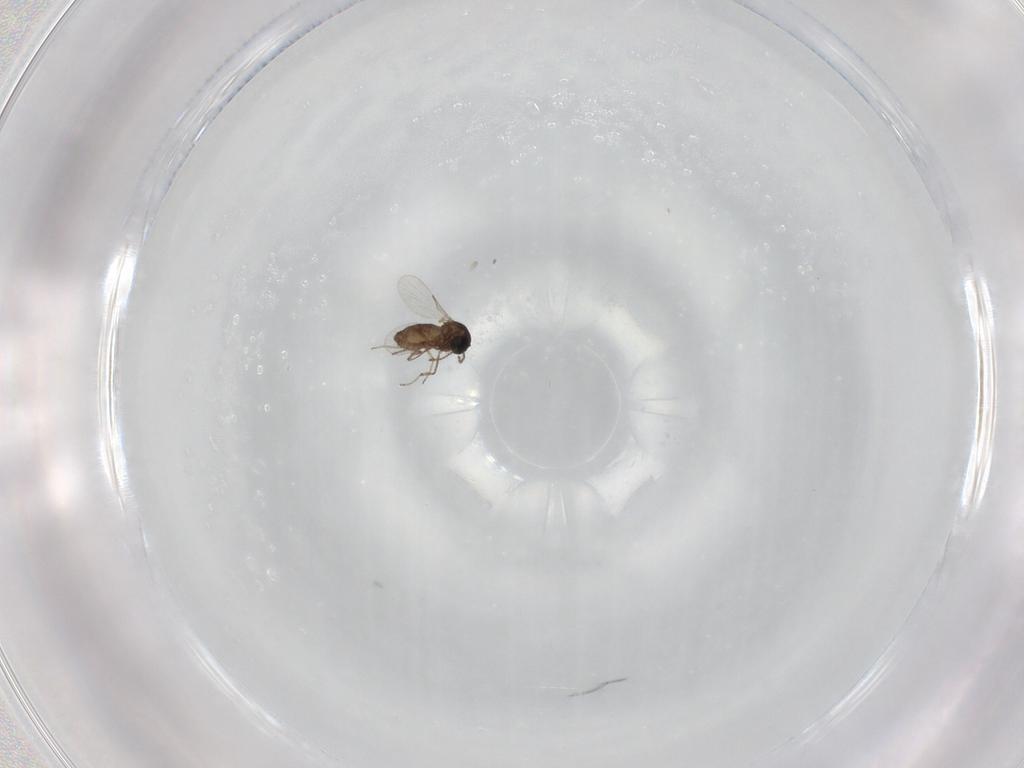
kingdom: Animalia
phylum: Arthropoda
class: Insecta
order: Diptera
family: Ceratopogonidae
